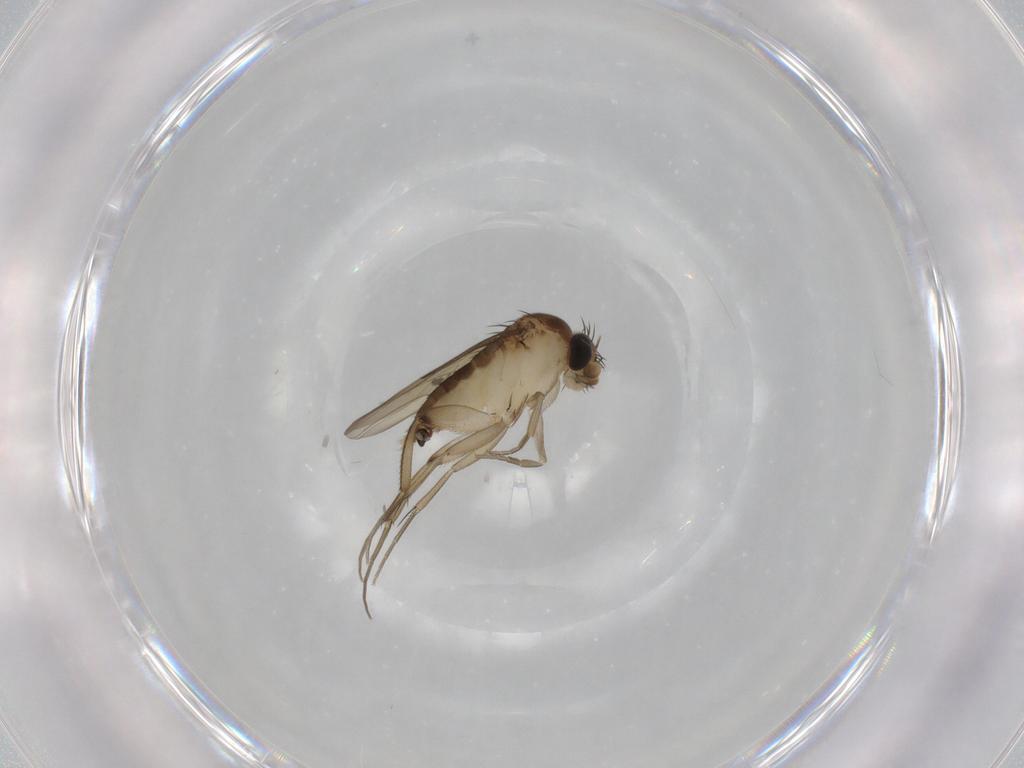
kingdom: Animalia
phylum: Arthropoda
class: Insecta
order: Diptera
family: Phoridae
